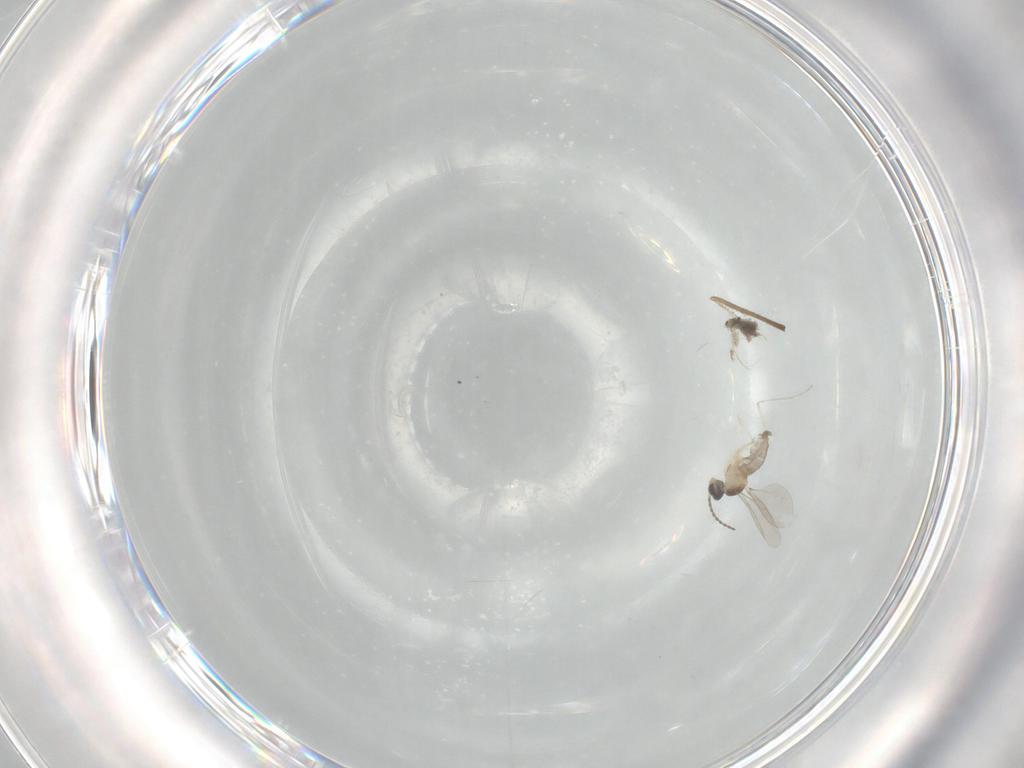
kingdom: Animalia
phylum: Arthropoda
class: Insecta
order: Diptera
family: Cecidomyiidae
